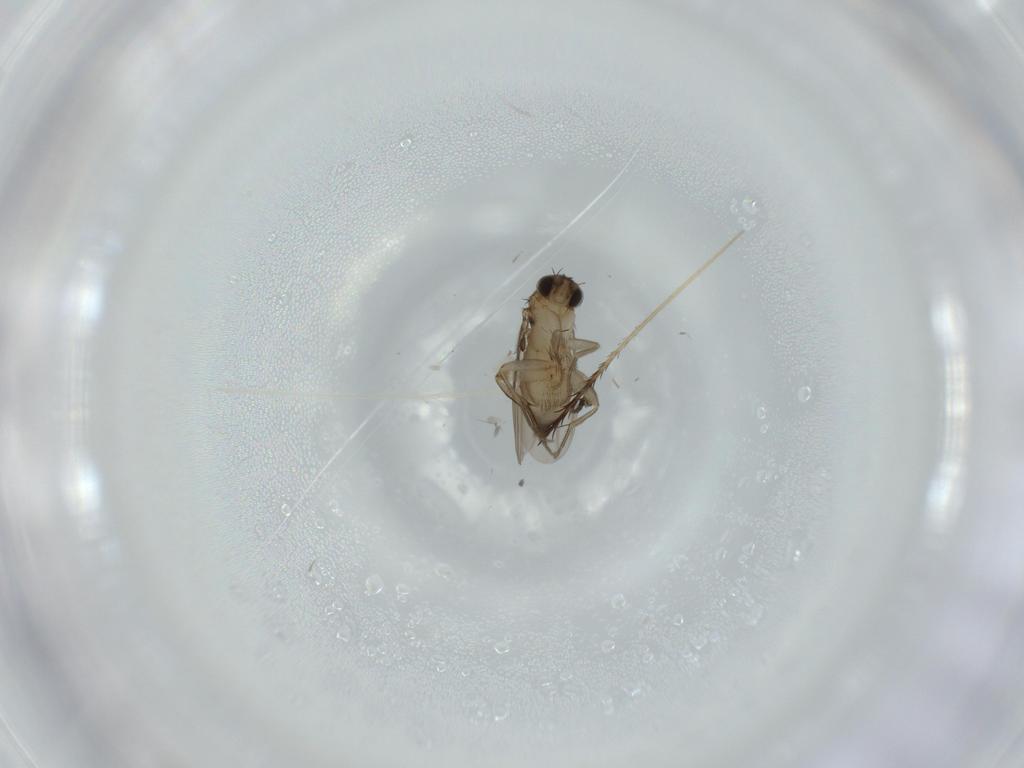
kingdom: Animalia
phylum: Arthropoda
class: Insecta
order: Diptera
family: Phoridae
